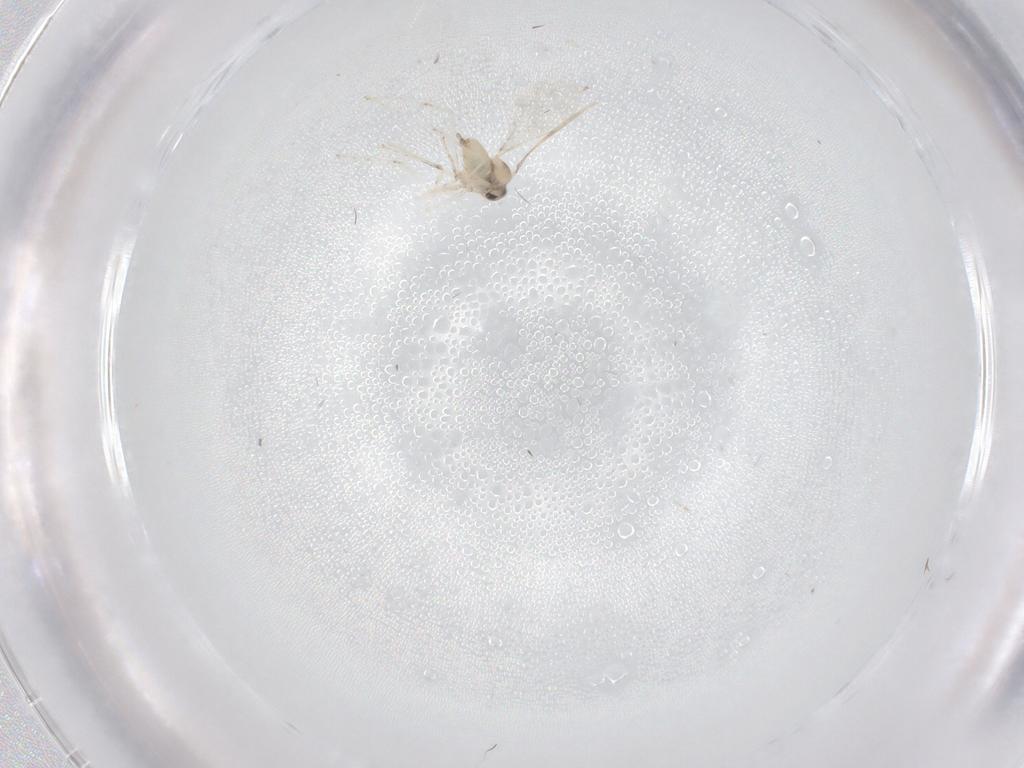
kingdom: Animalia
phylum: Arthropoda
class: Insecta
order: Diptera
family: Cecidomyiidae
